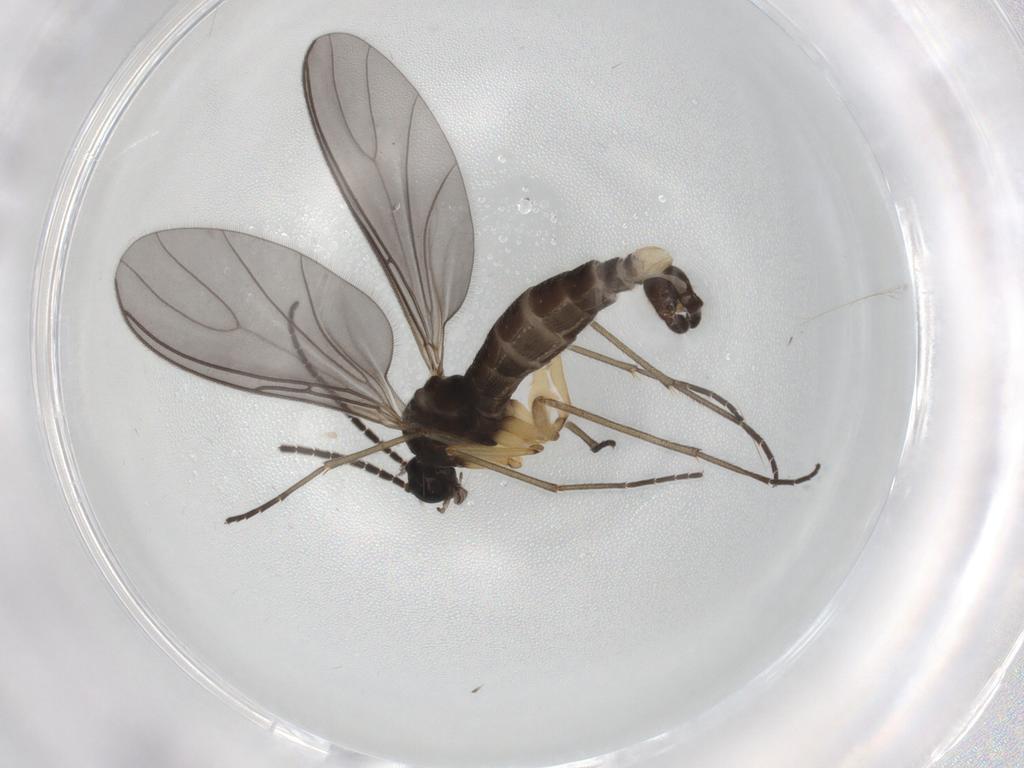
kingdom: Animalia
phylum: Arthropoda
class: Insecta
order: Diptera
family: Sciaridae
